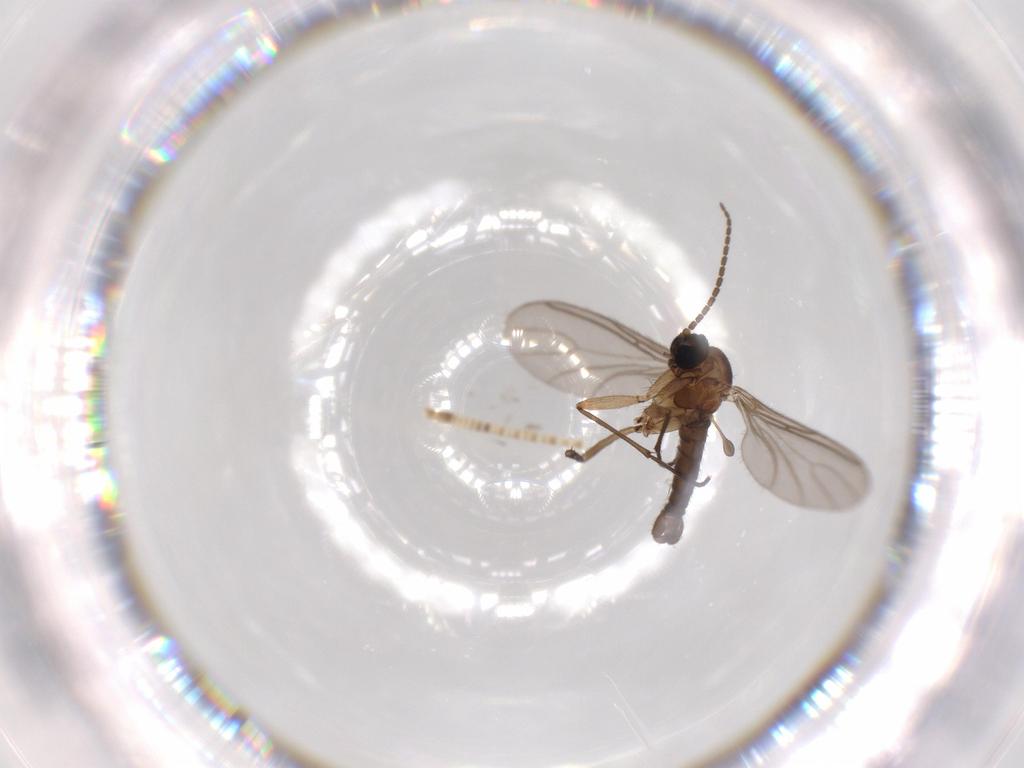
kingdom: Animalia
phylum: Arthropoda
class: Insecta
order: Diptera
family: Sciaridae
